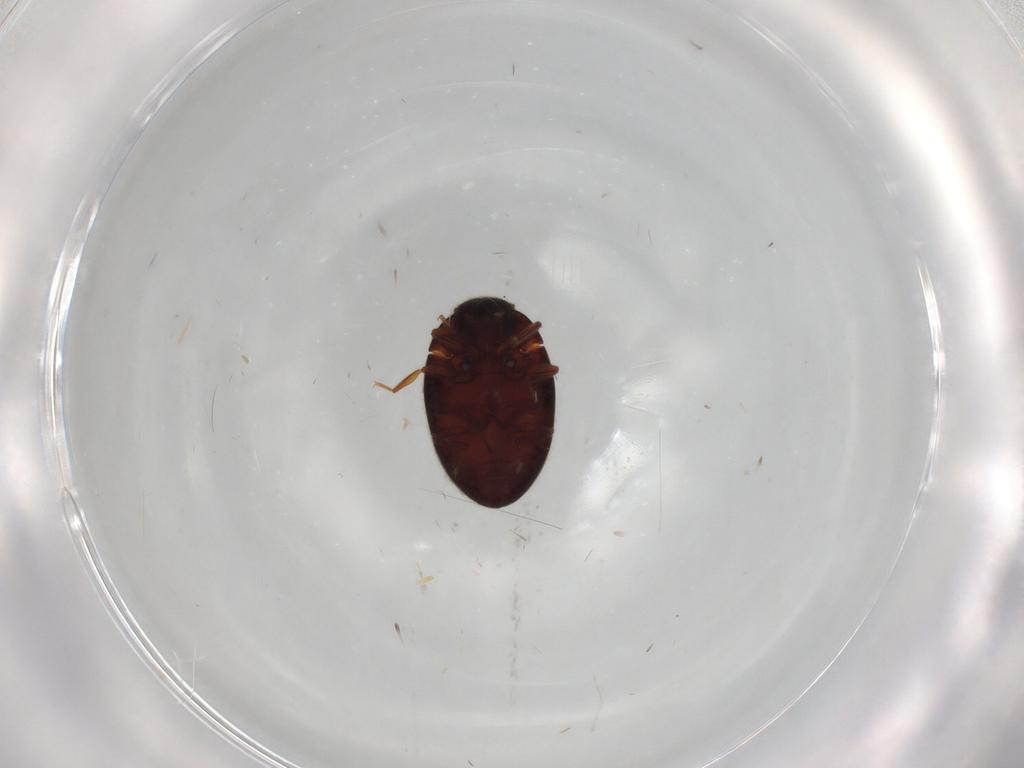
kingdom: Animalia
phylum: Arthropoda
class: Insecta
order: Coleoptera
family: Limnichidae
